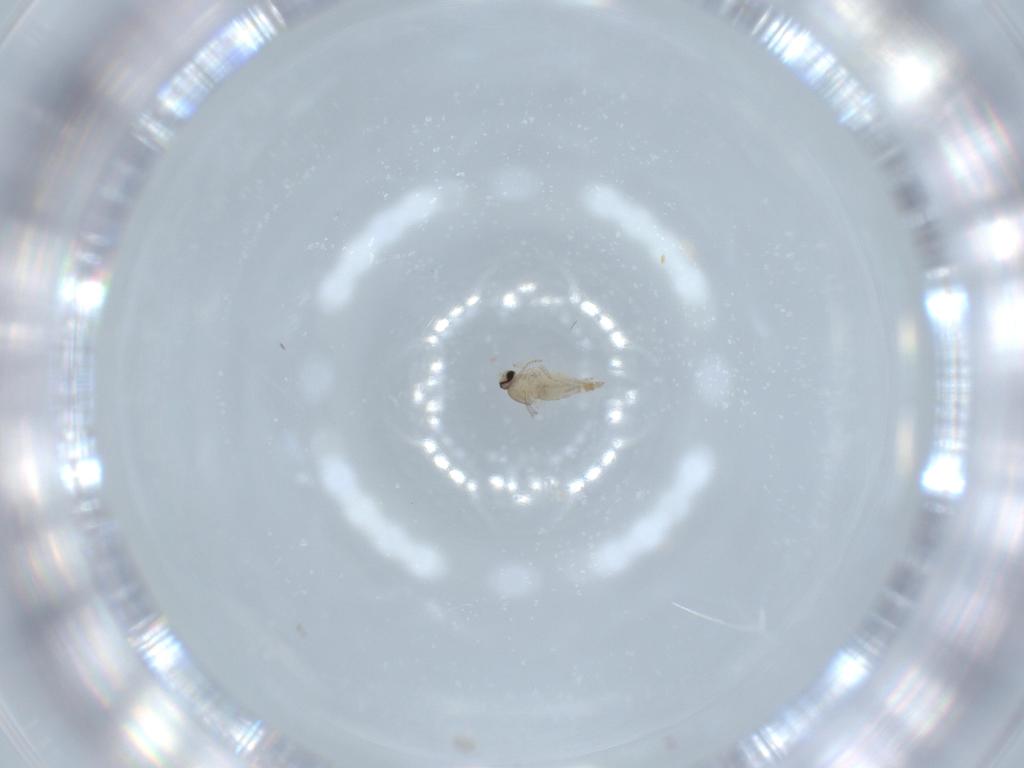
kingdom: Animalia
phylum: Arthropoda
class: Insecta
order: Diptera
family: Cecidomyiidae
